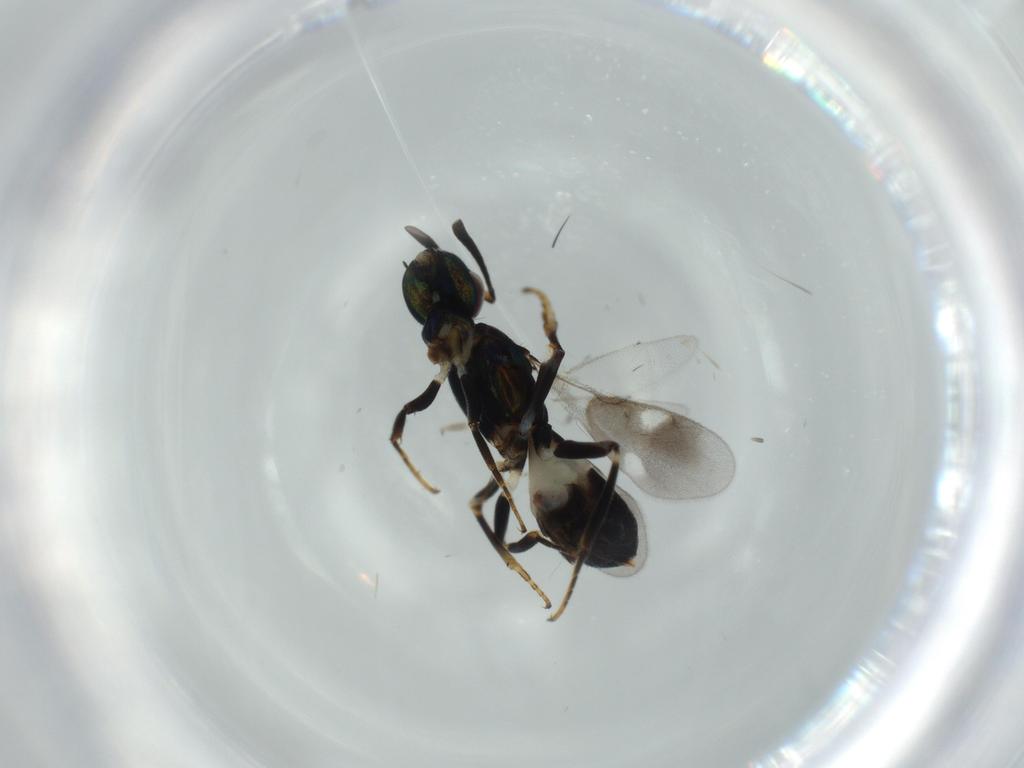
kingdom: Animalia
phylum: Arthropoda
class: Insecta
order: Hymenoptera
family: Eupelmidae
